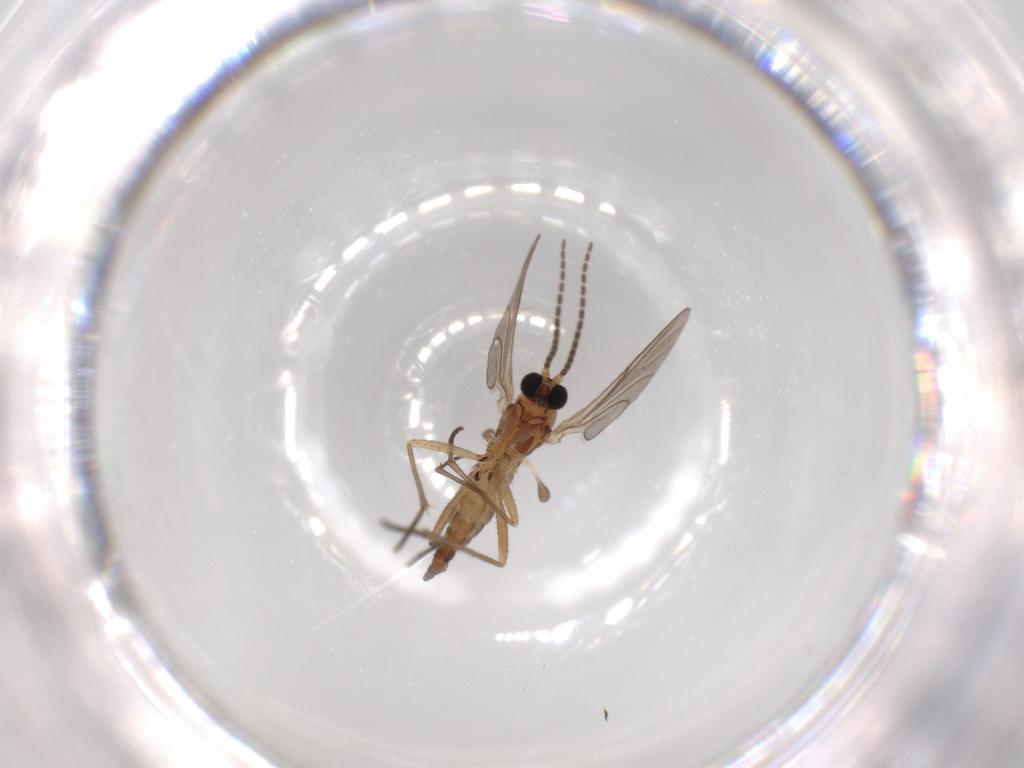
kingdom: Animalia
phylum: Arthropoda
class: Insecta
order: Diptera
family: Sciaridae
